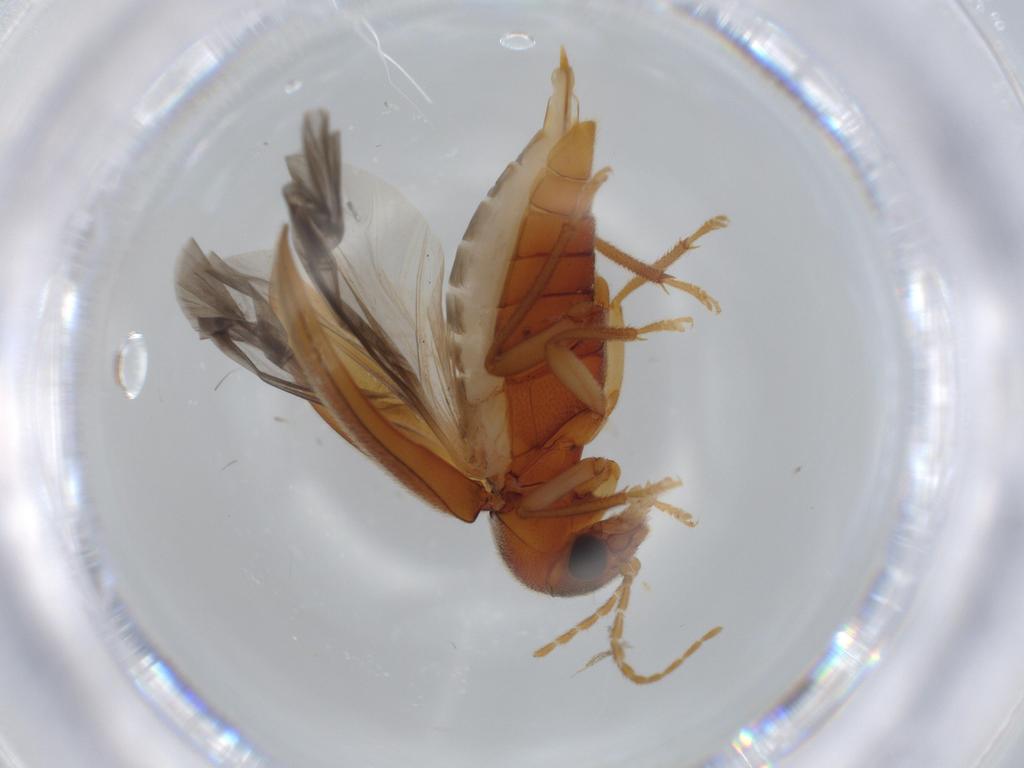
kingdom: Animalia
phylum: Arthropoda
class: Insecta
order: Coleoptera
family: Ptilodactylidae
